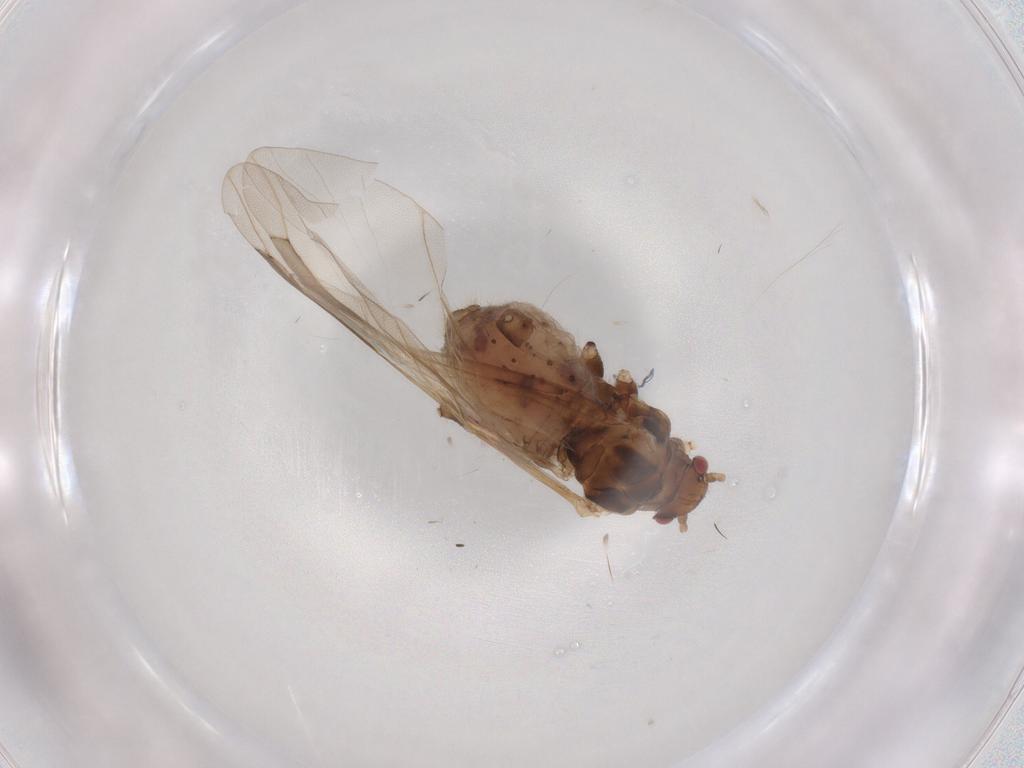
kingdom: Animalia
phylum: Arthropoda
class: Insecta
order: Hemiptera
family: Aphididae
